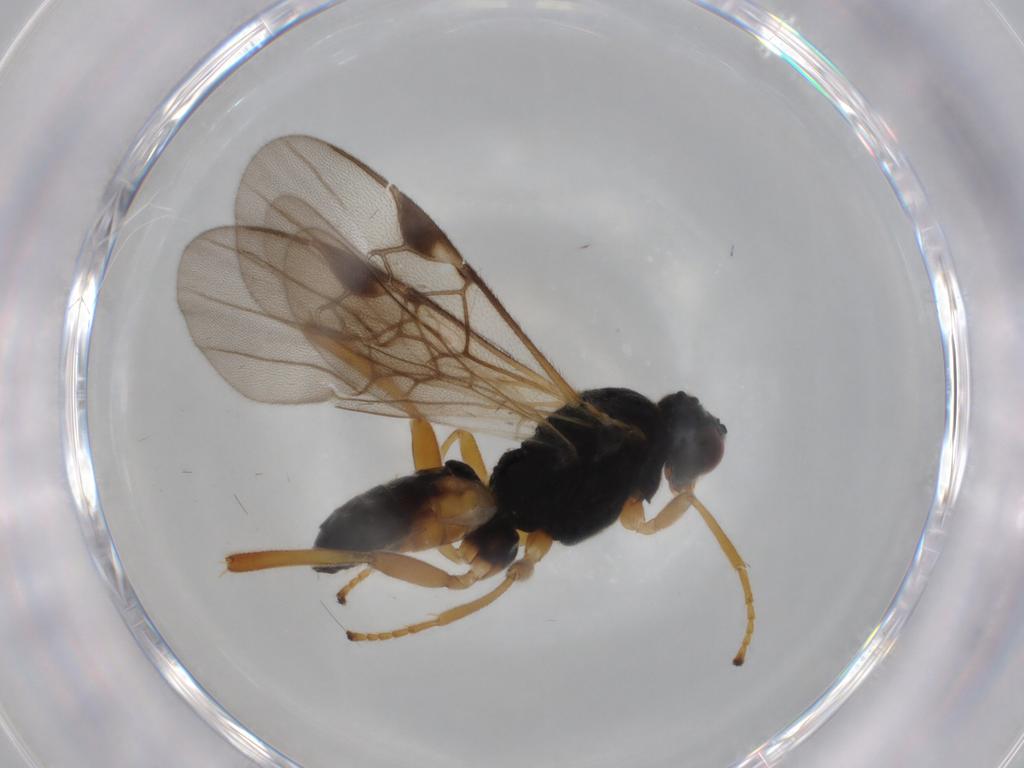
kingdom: Animalia
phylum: Arthropoda
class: Insecta
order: Hymenoptera
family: Braconidae
